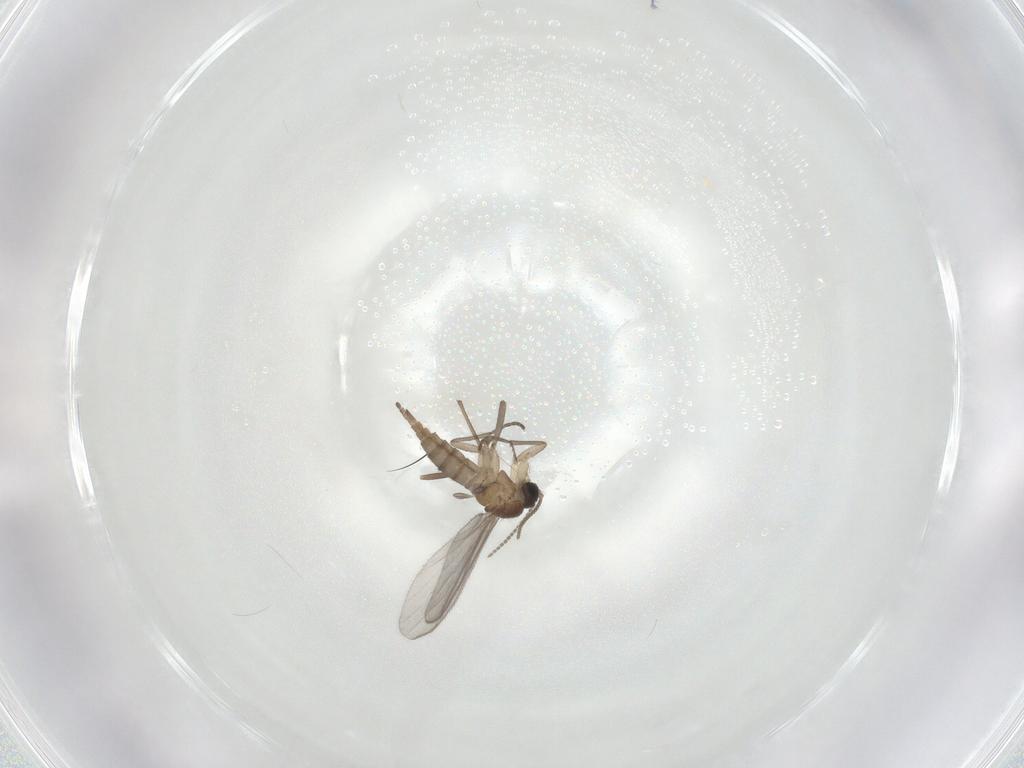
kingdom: Animalia
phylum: Arthropoda
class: Insecta
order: Diptera
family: Sciaridae
